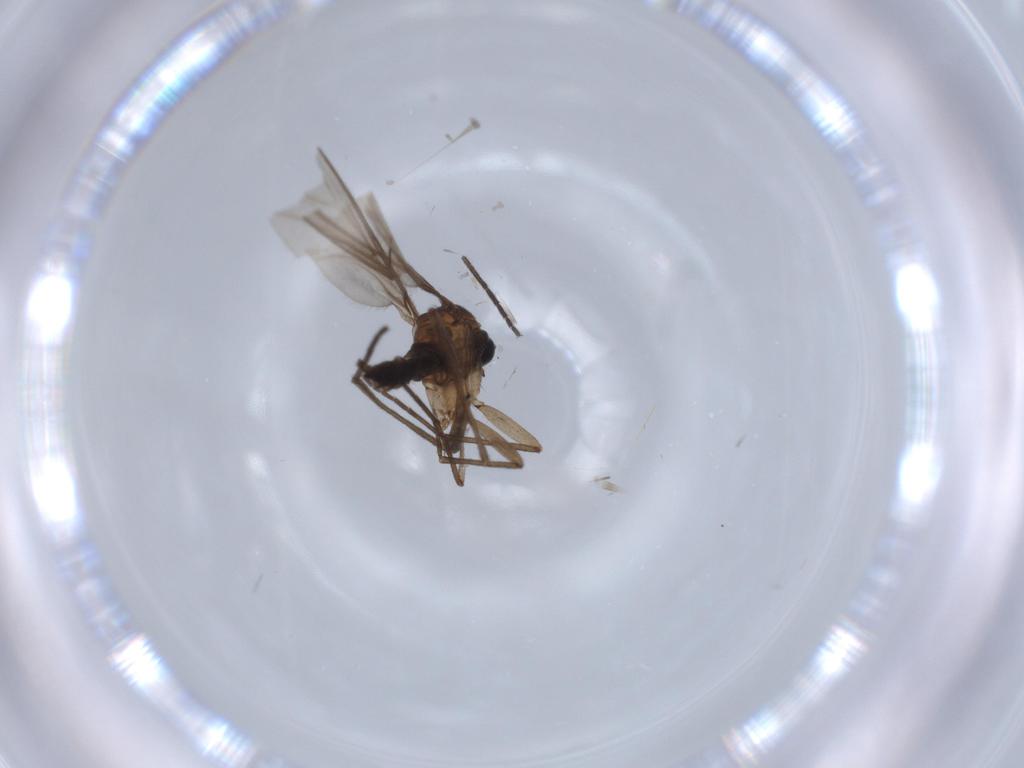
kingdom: Animalia
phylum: Arthropoda
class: Insecta
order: Diptera
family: Sciaridae
